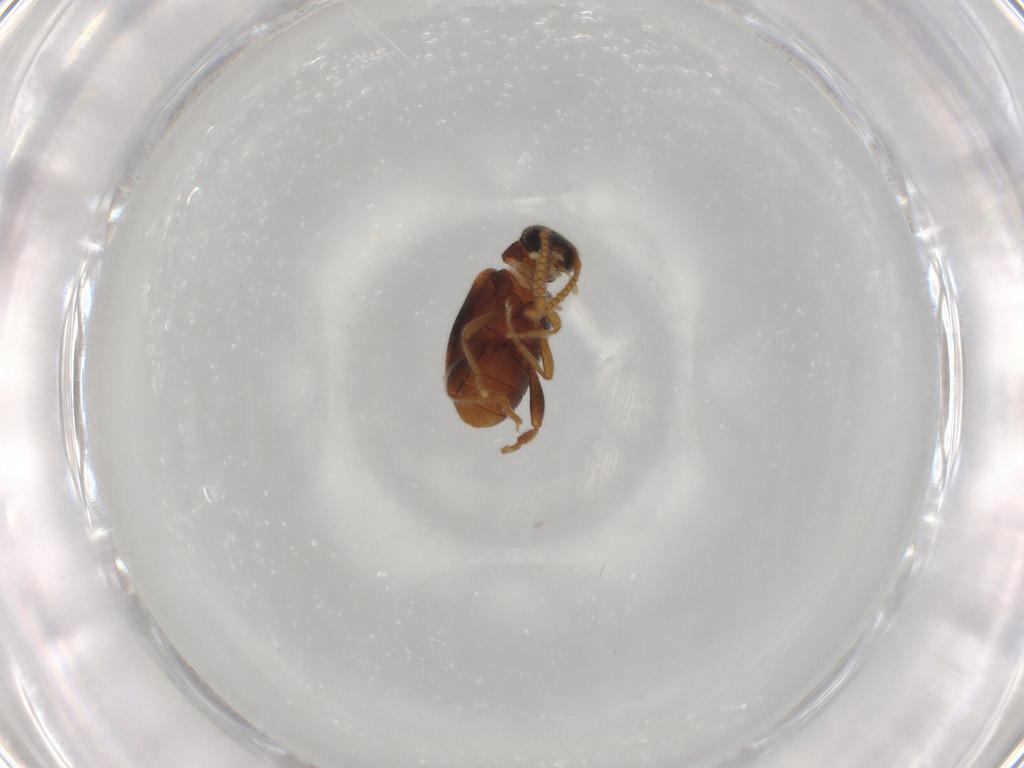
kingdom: Animalia
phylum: Arthropoda
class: Insecta
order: Coleoptera
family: Aderidae
